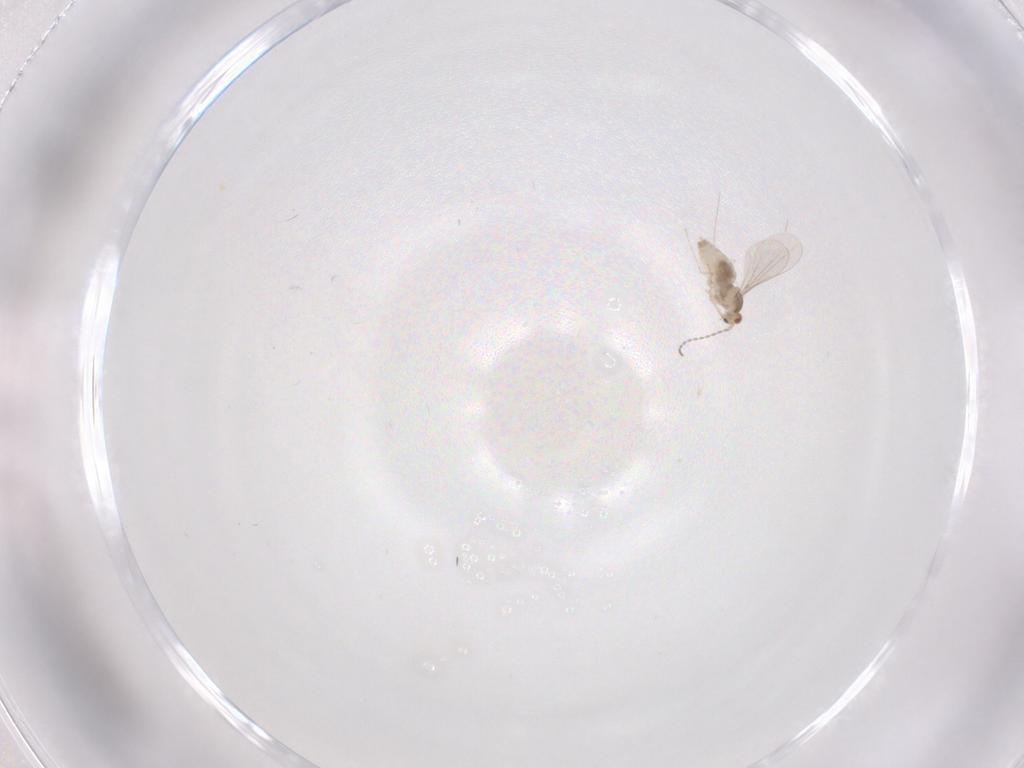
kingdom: Animalia
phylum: Arthropoda
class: Insecta
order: Diptera
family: Cecidomyiidae
